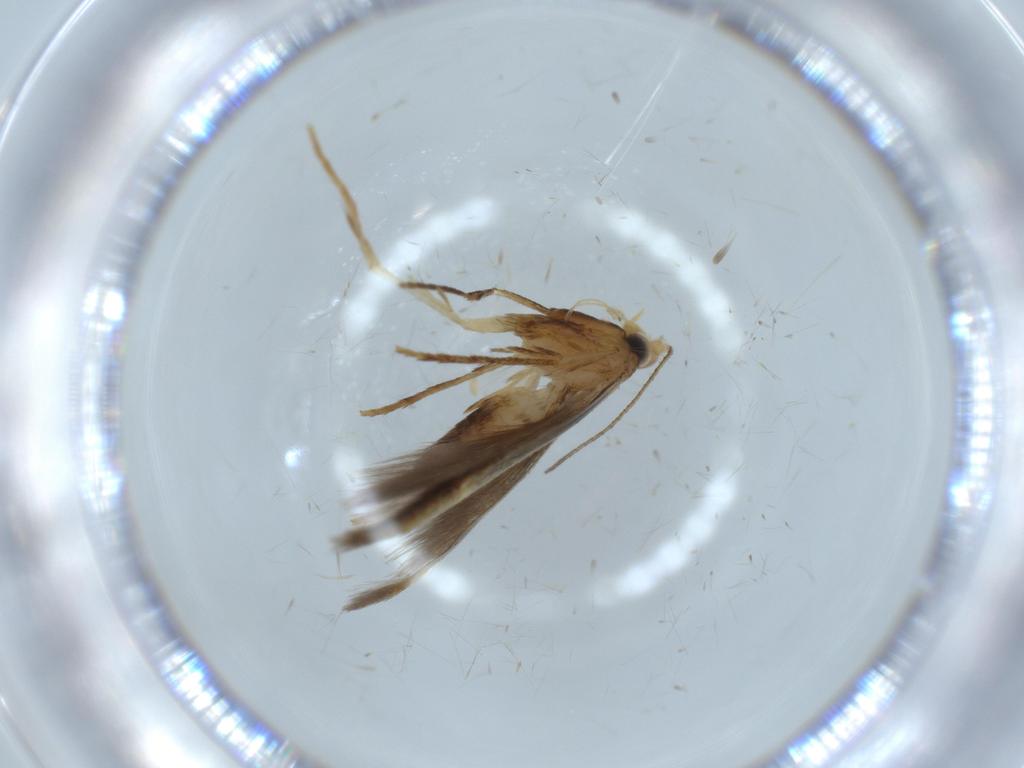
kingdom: Animalia
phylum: Arthropoda
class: Insecta
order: Lepidoptera
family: Tischeriidae
